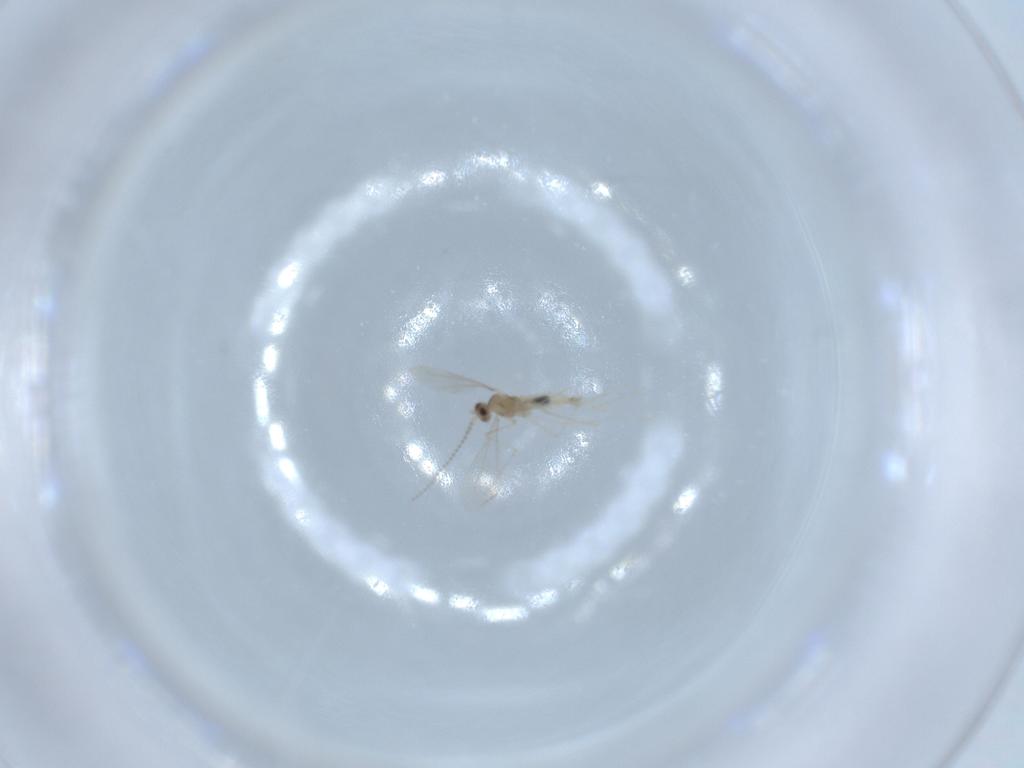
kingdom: Animalia
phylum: Arthropoda
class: Insecta
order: Diptera
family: Cecidomyiidae
